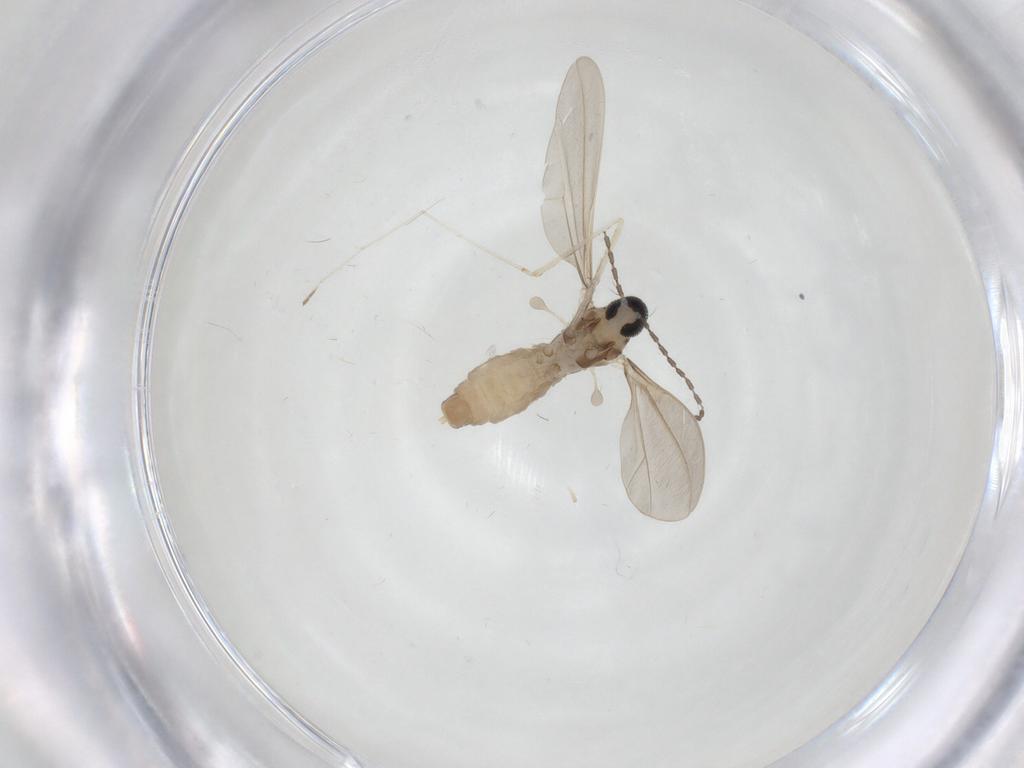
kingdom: Animalia
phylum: Arthropoda
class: Insecta
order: Diptera
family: Cecidomyiidae
